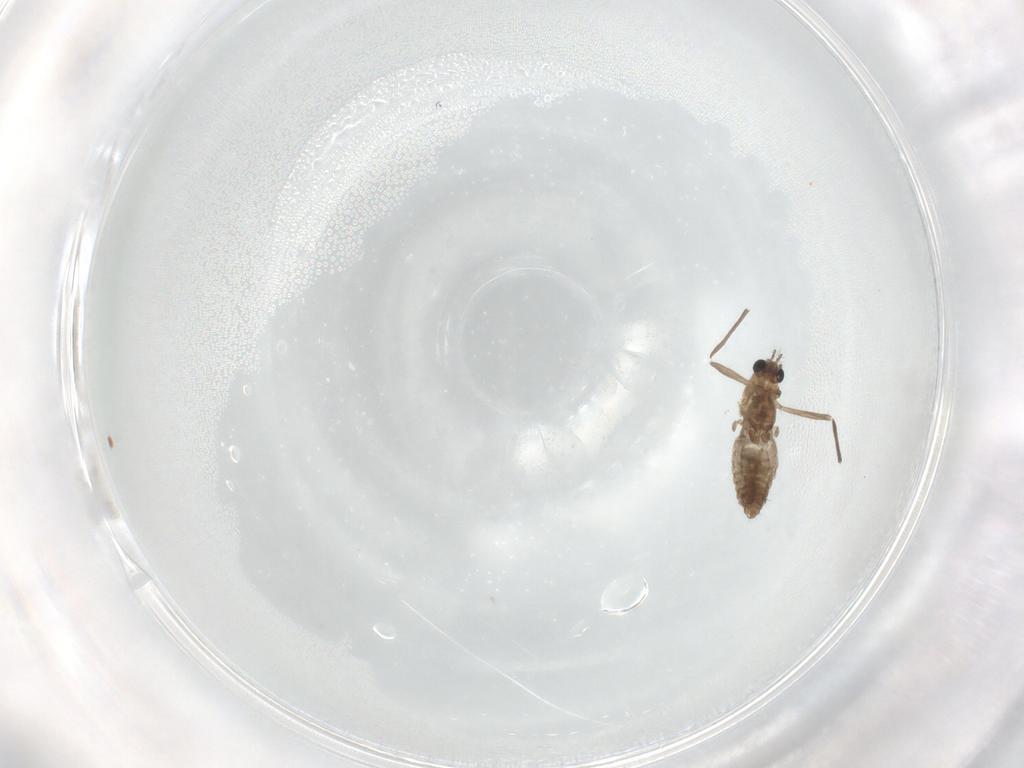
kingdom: Animalia
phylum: Arthropoda
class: Insecta
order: Diptera
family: Chironomidae
